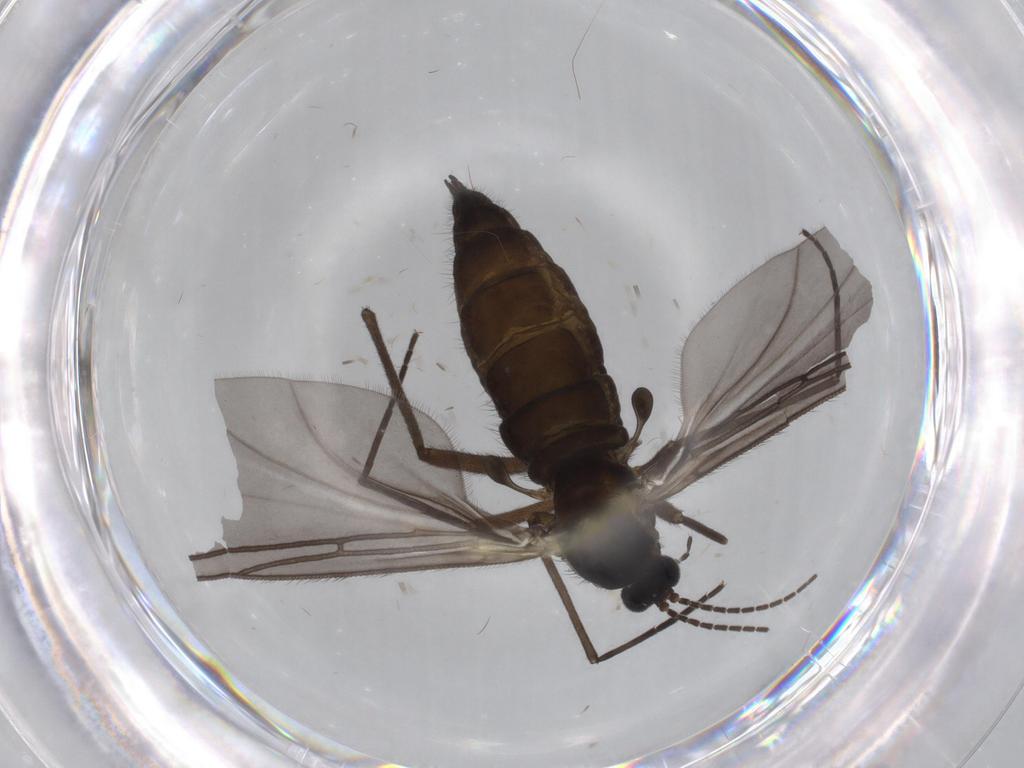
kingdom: Animalia
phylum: Arthropoda
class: Insecta
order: Diptera
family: Sciaridae
